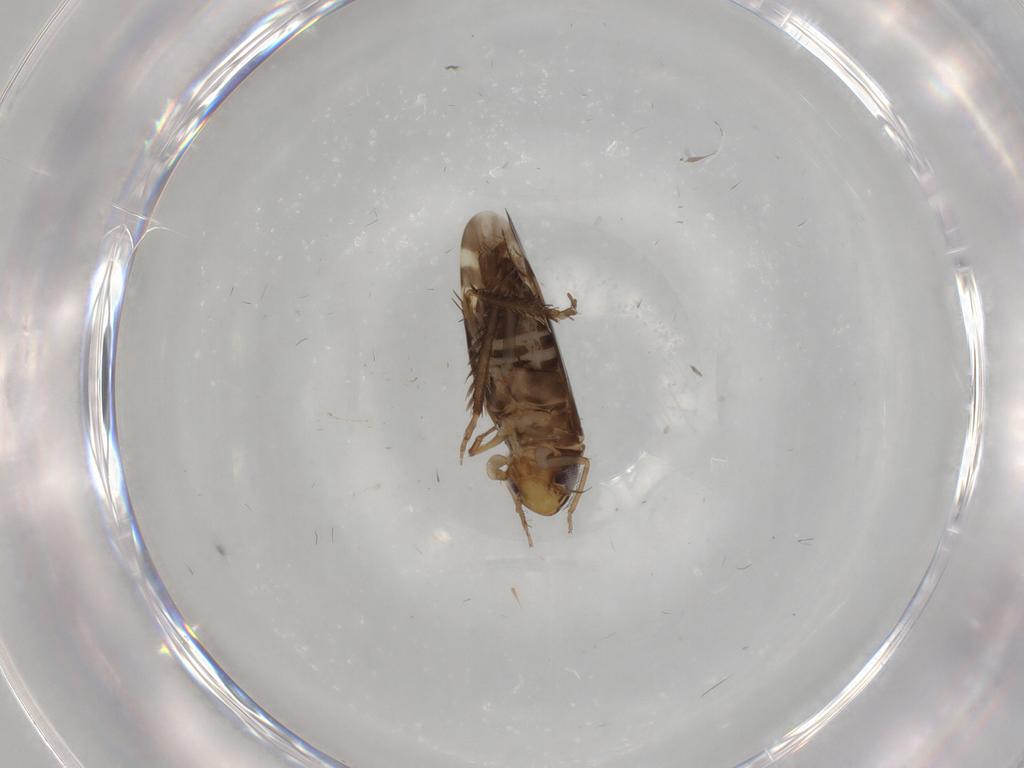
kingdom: Animalia
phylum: Arthropoda
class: Insecta
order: Hemiptera
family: Cicadellidae
